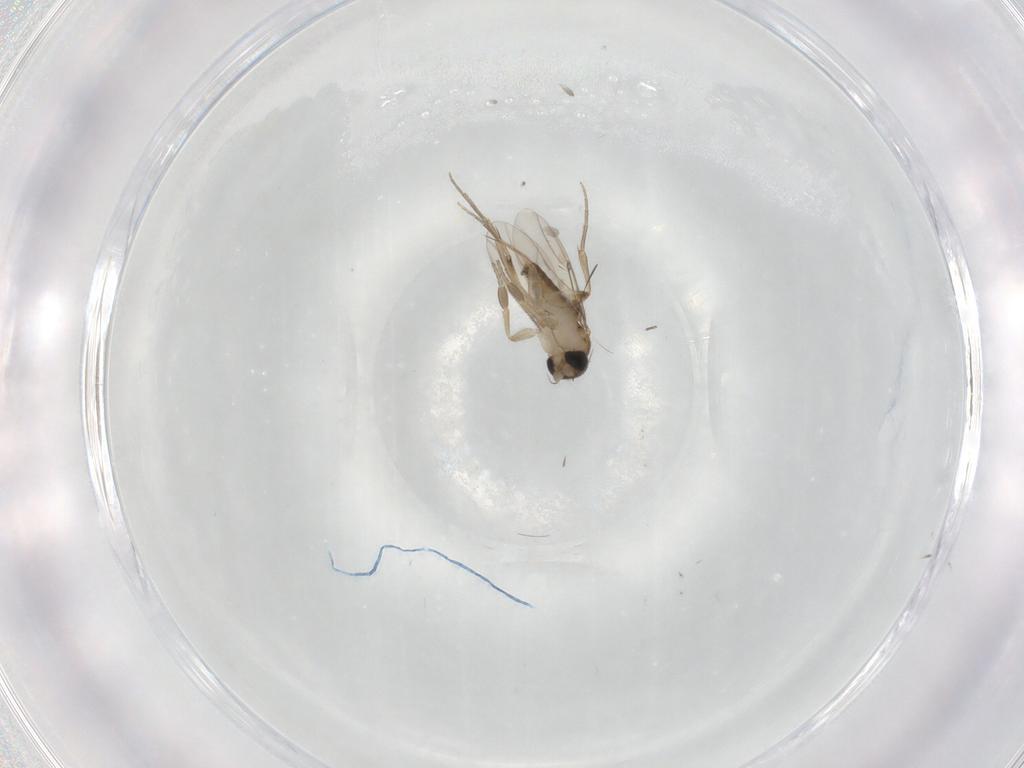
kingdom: Animalia
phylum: Arthropoda
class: Insecta
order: Diptera
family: Phoridae
